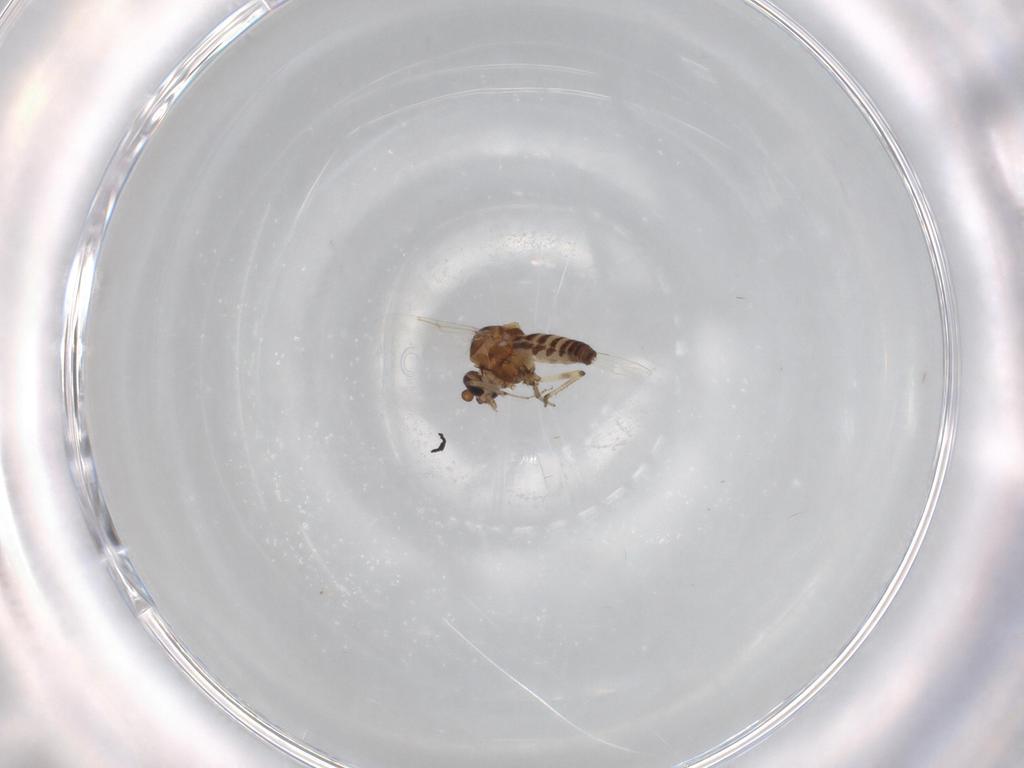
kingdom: Animalia
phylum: Arthropoda
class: Insecta
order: Diptera
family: Ceratopogonidae
